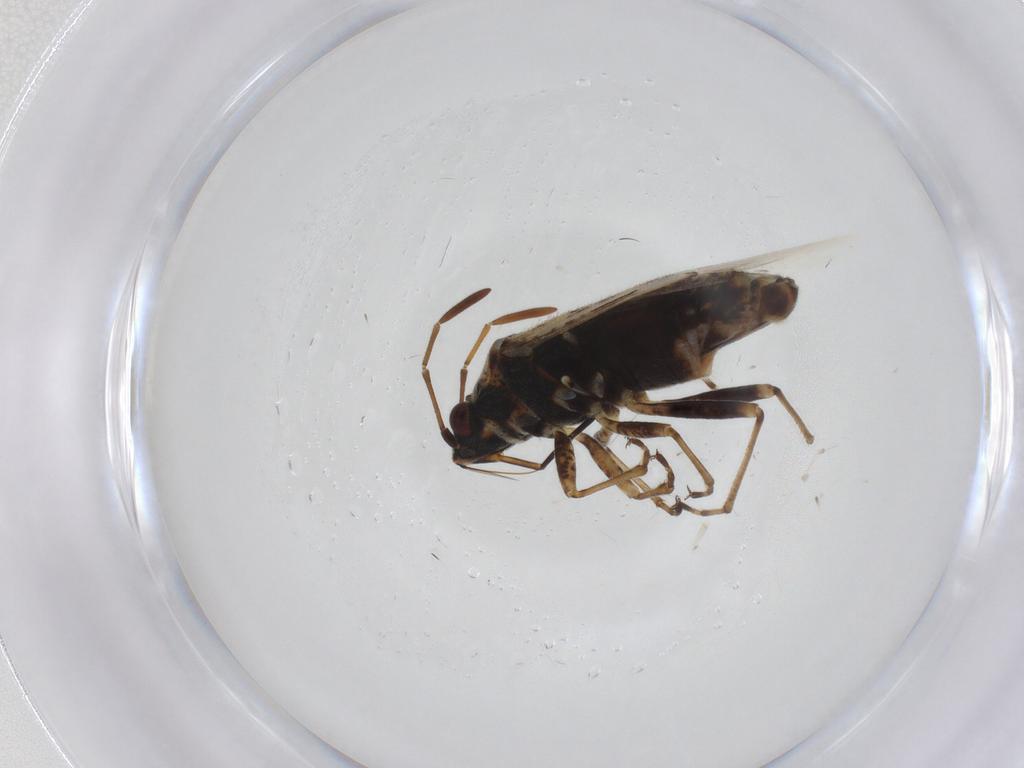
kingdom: Animalia
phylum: Arthropoda
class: Insecta
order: Hemiptera
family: Lygaeidae
